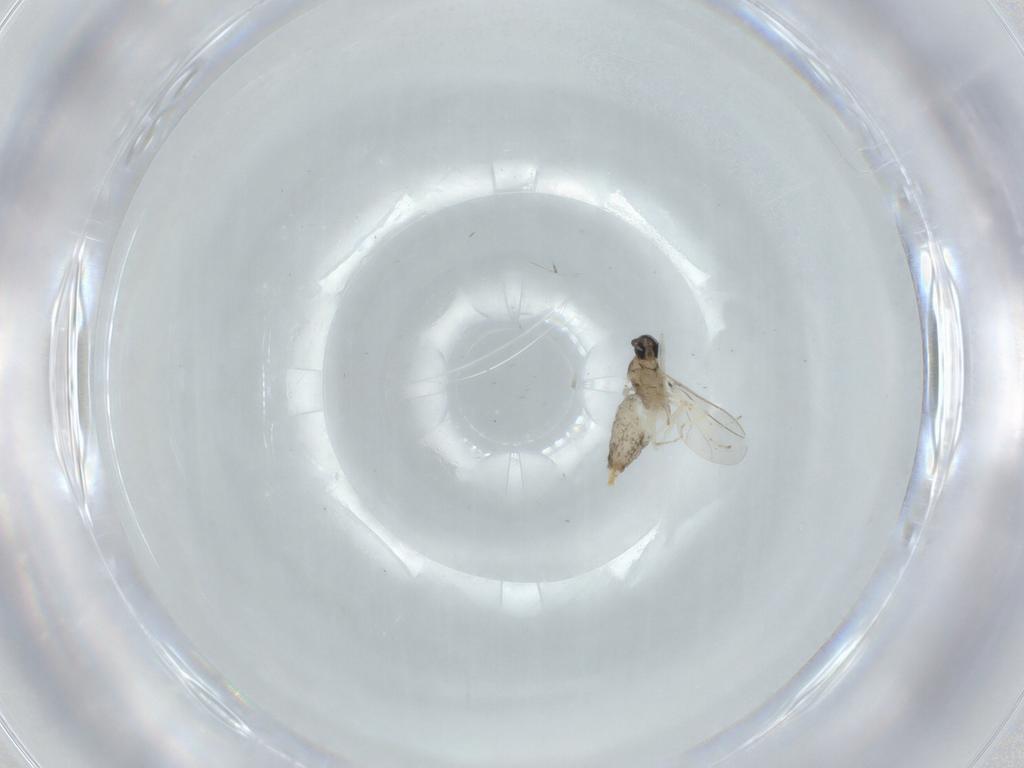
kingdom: Animalia
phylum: Arthropoda
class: Insecta
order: Diptera
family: Cecidomyiidae
